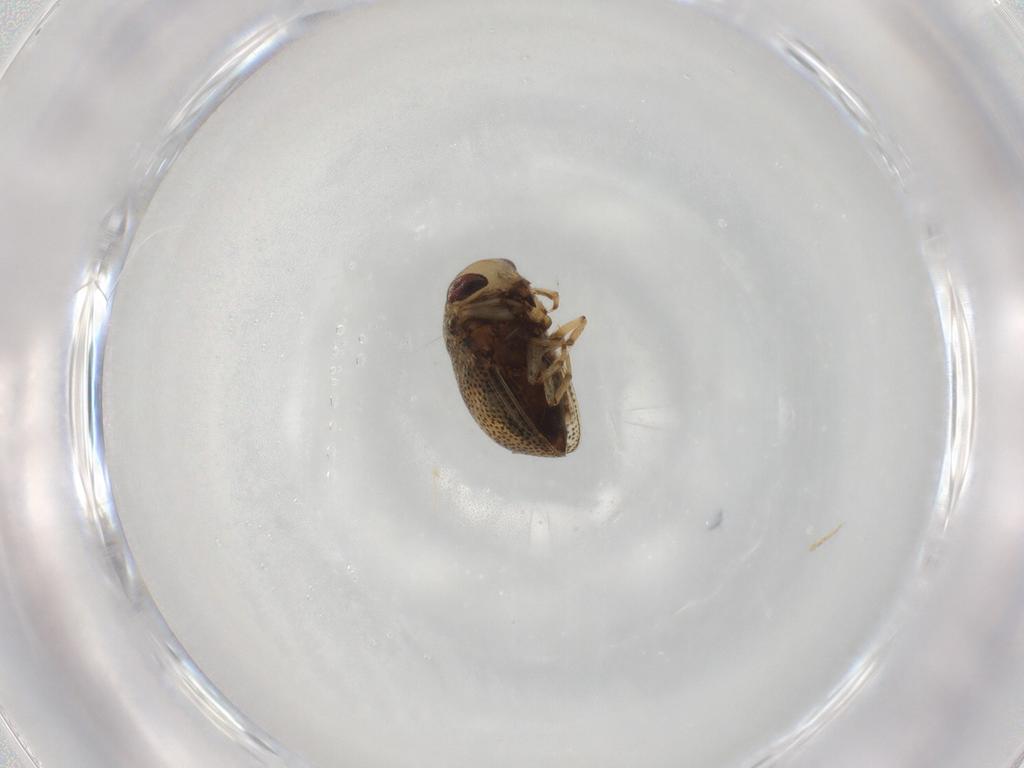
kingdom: Animalia
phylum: Arthropoda
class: Insecta
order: Hemiptera
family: Pleidae
